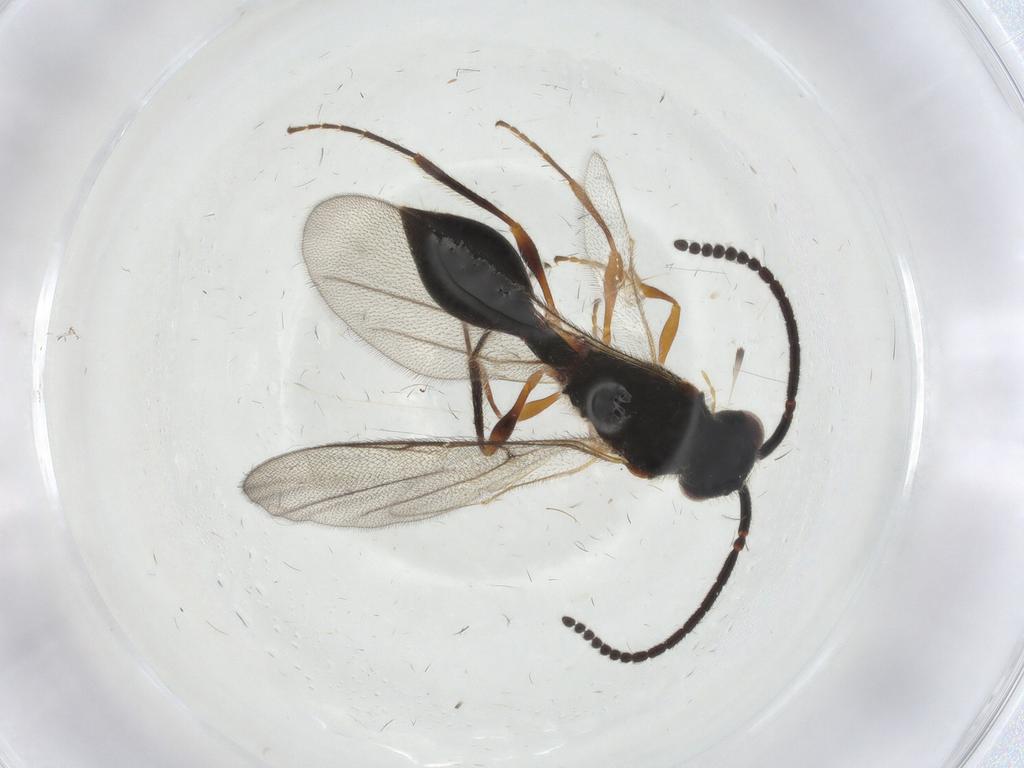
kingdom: Animalia
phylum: Arthropoda
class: Insecta
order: Hymenoptera
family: Diapriidae
